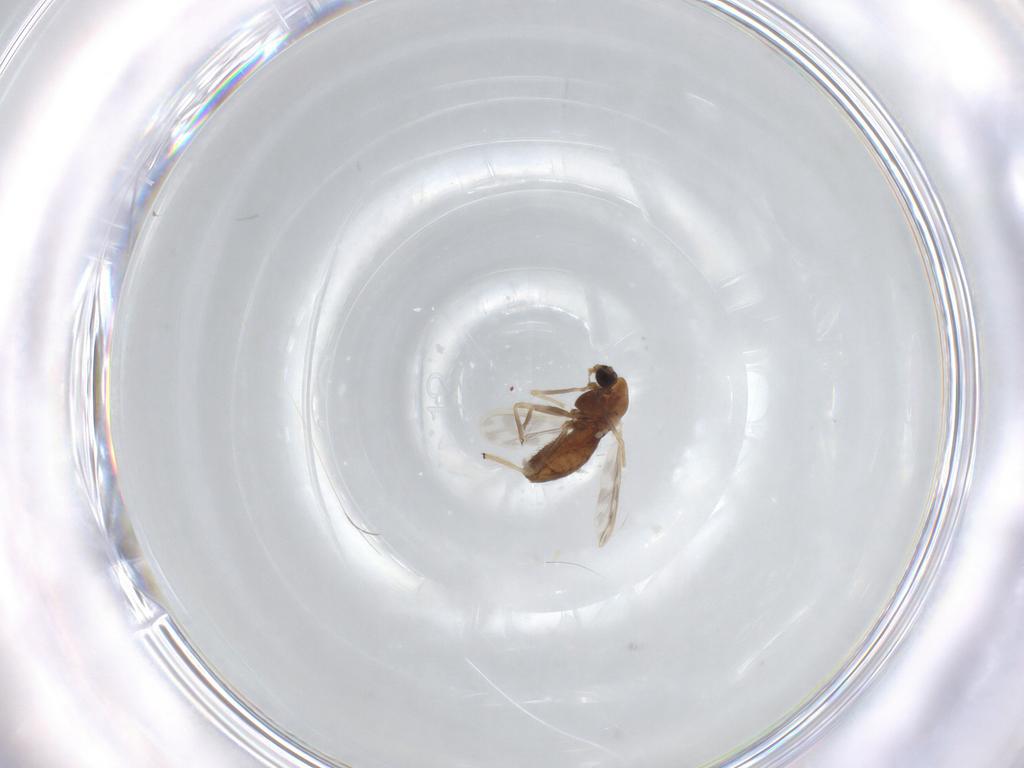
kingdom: Animalia
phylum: Arthropoda
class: Insecta
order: Diptera
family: Chironomidae
